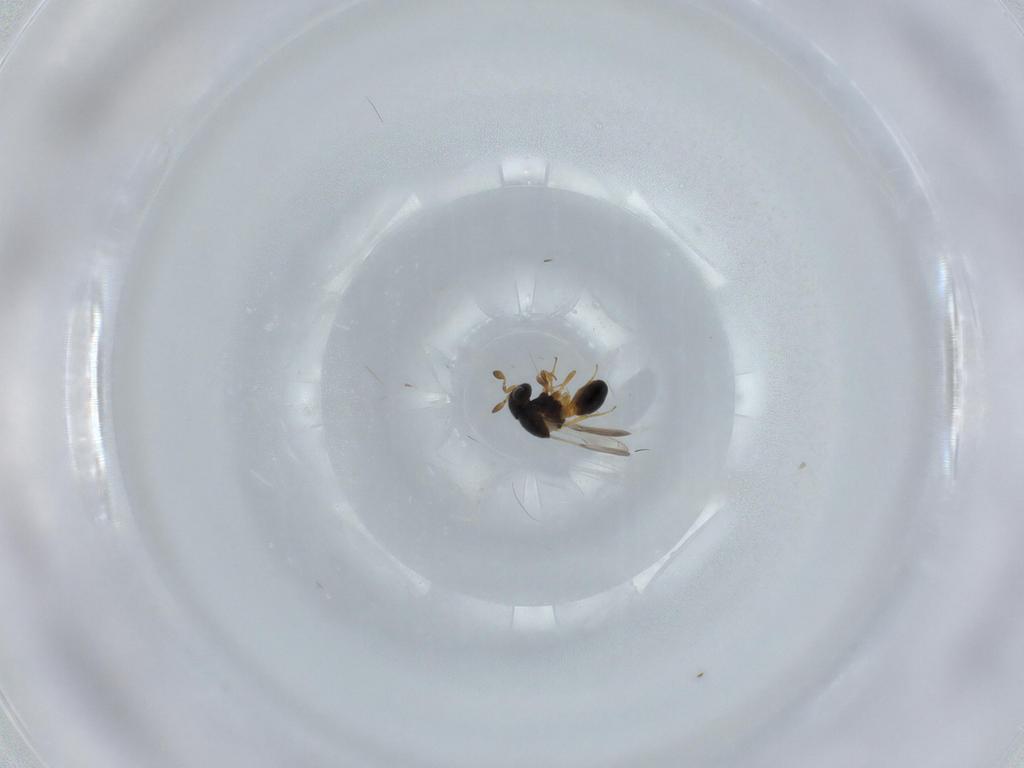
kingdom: Animalia
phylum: Arthropoda
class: Insecta
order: Hymenoptera
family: Scelionidae
